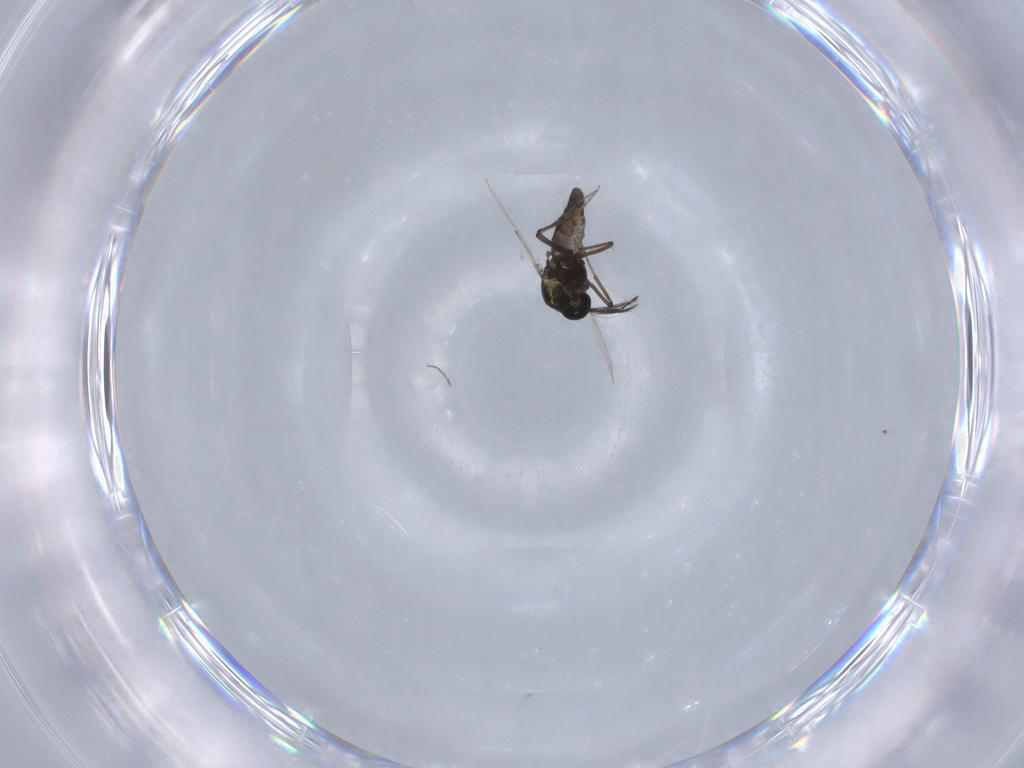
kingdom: Animalia
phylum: Arthropoda
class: Insecta
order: Diptera
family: Ceratopogonidae
